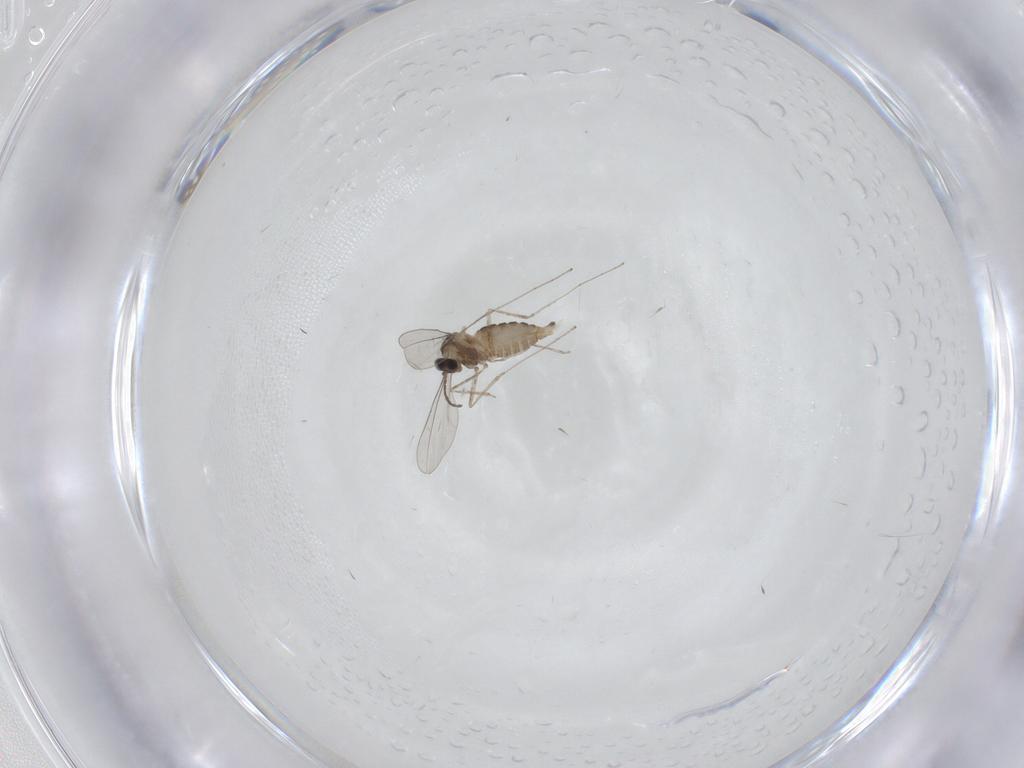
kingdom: Animalia
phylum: Arthropoda
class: Insecta
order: Diptera
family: Cecidomyiidae
